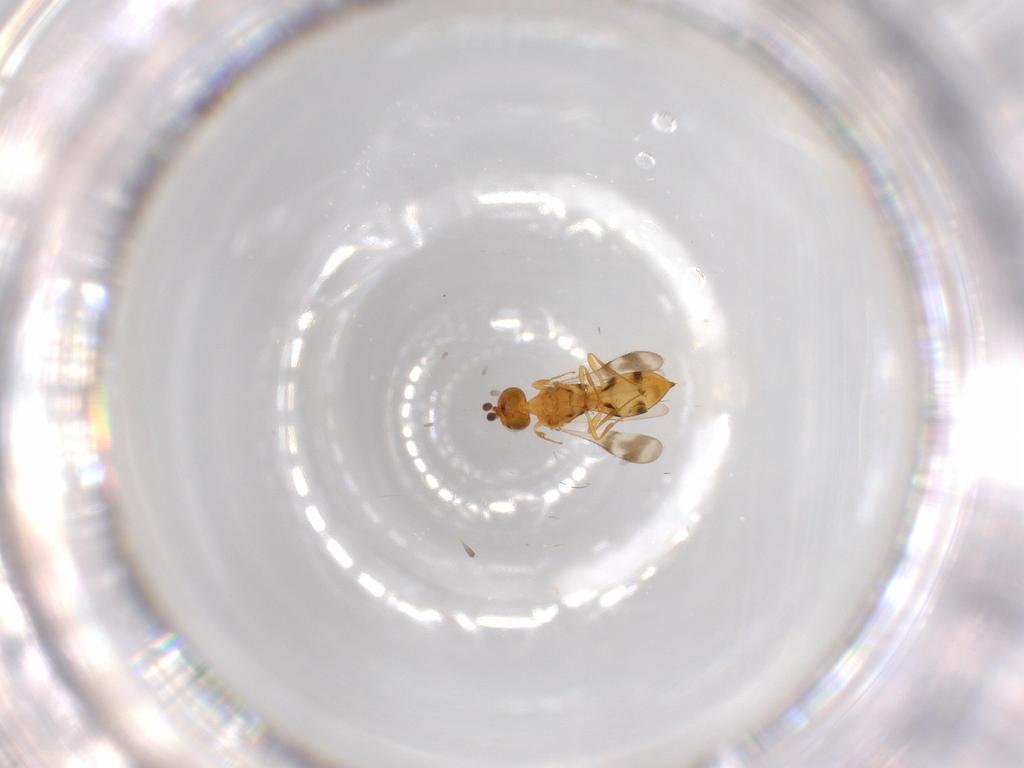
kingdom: Animalia
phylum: Arthropoda
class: Insecta
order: Hymenoptera
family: Scelionidae
